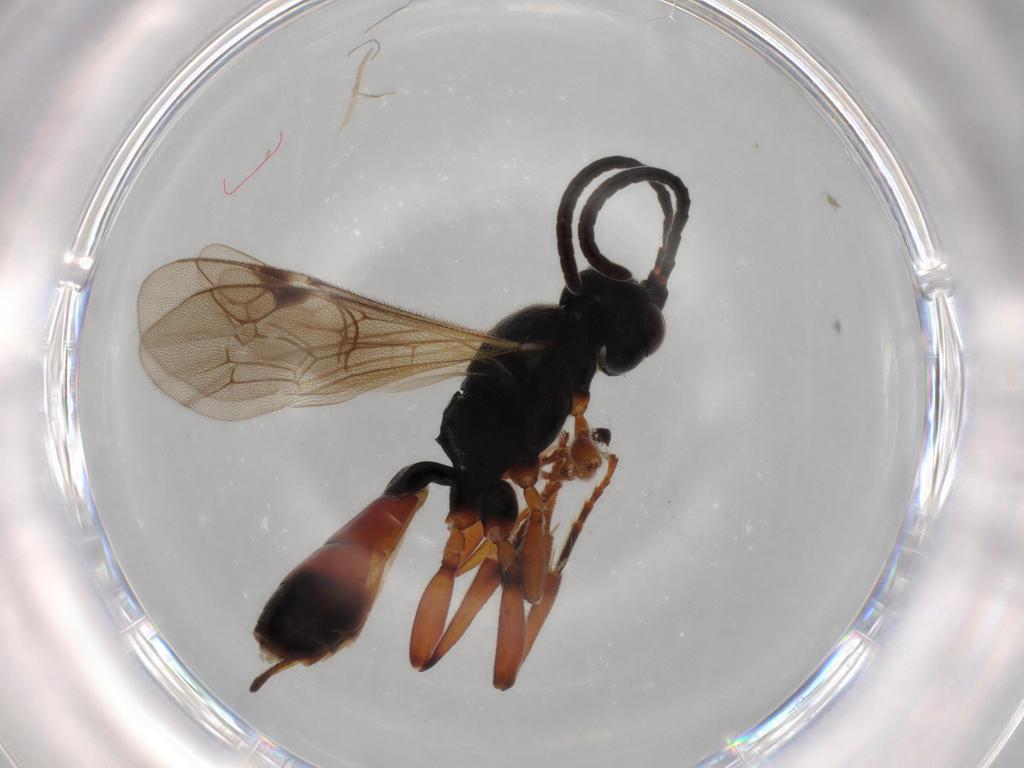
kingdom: Animalia
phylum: Arthropoda
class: Insecta
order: Hymenoptera
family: Ichneumonidae
